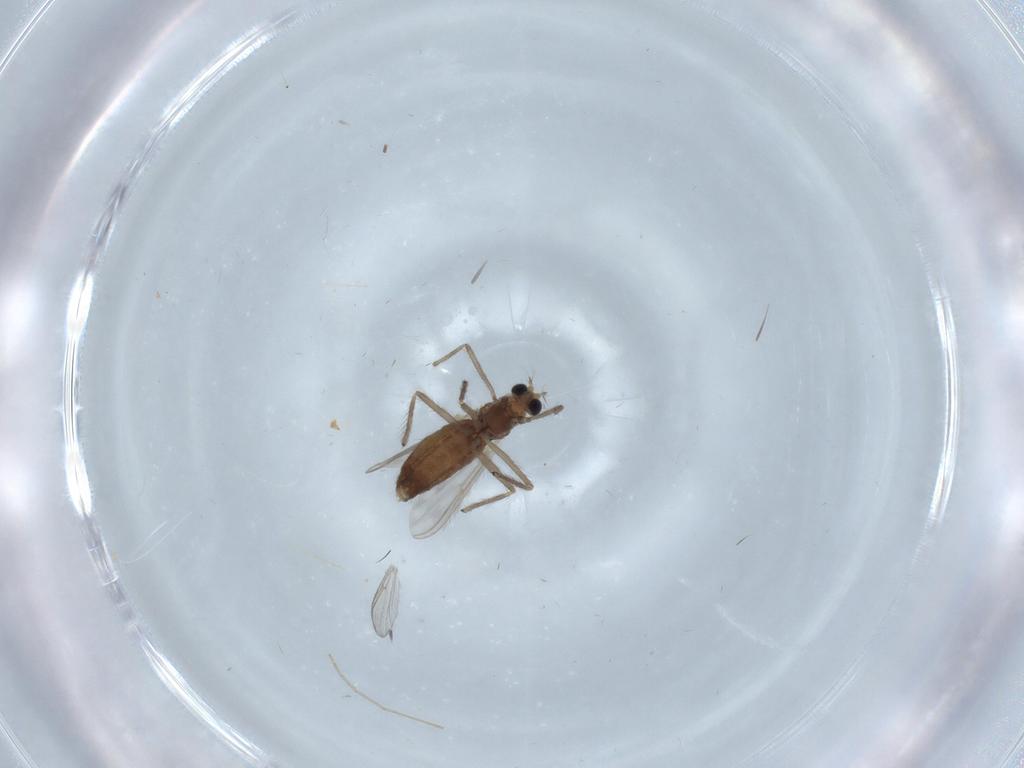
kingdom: Animalia
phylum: Arthropoda
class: Insecta
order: Diptera
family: Chironomidae
